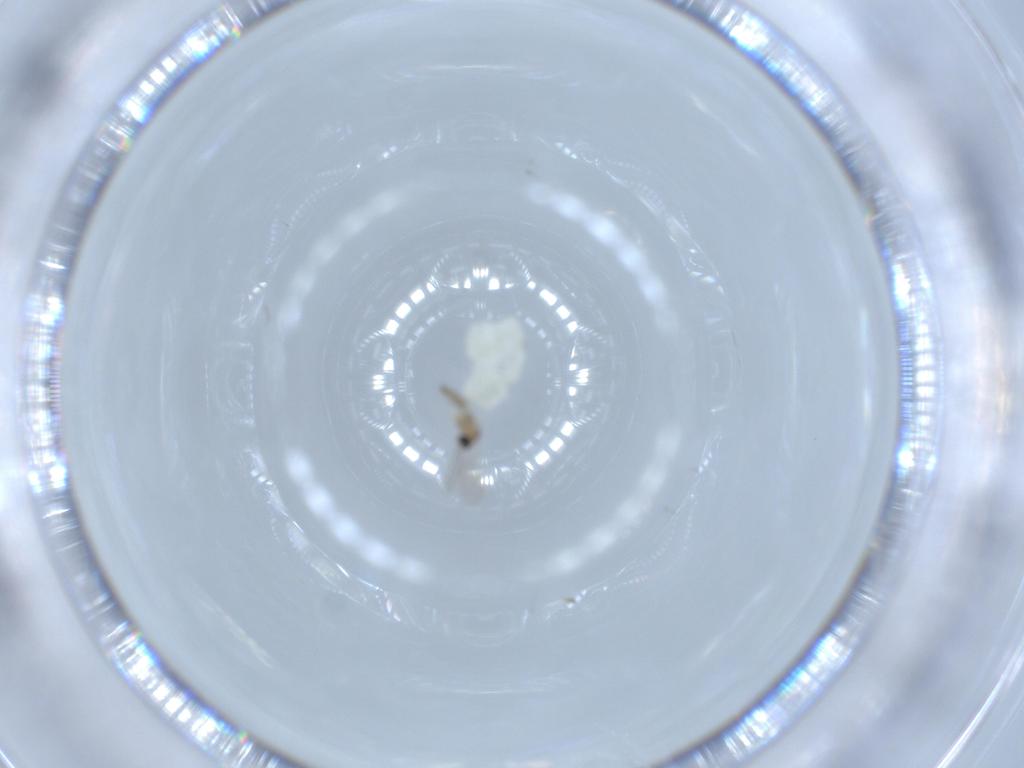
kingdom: Animalia
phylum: Arthropoda
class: Insecta
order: Diptera
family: Cecidomyiidae
